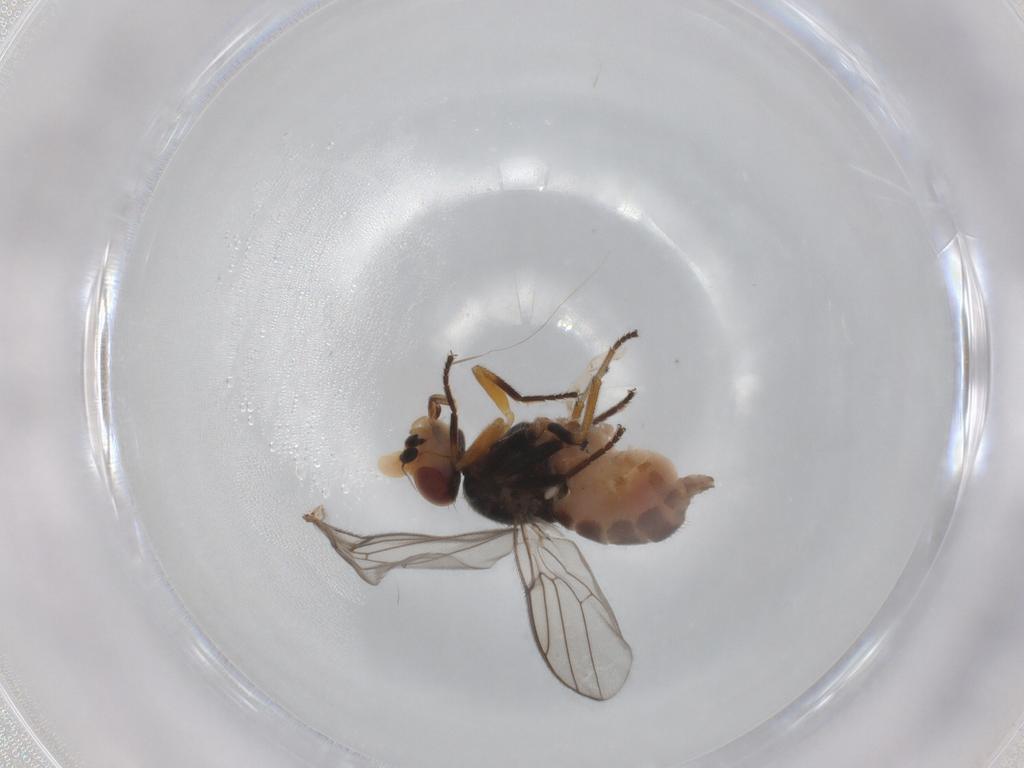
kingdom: Animalia
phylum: Arthropoda
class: Insecta
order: Diptera
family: Chloropidae
